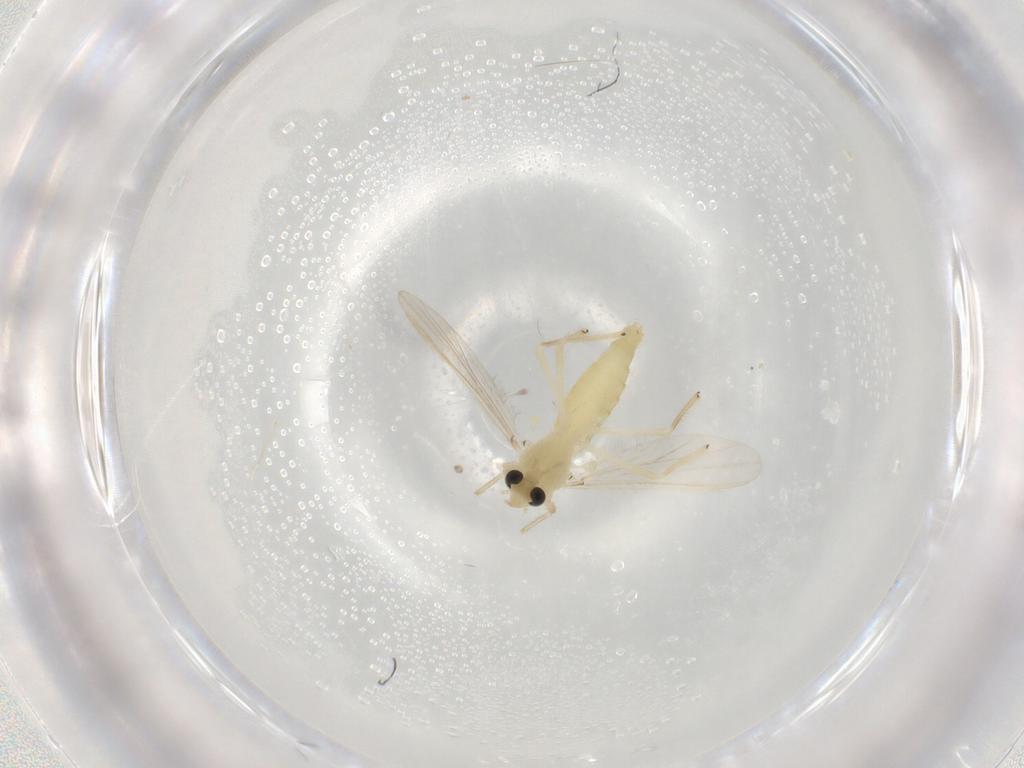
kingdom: Animalia
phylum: Arthropoda
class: Insecta
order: Diptera
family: Chironomidae
